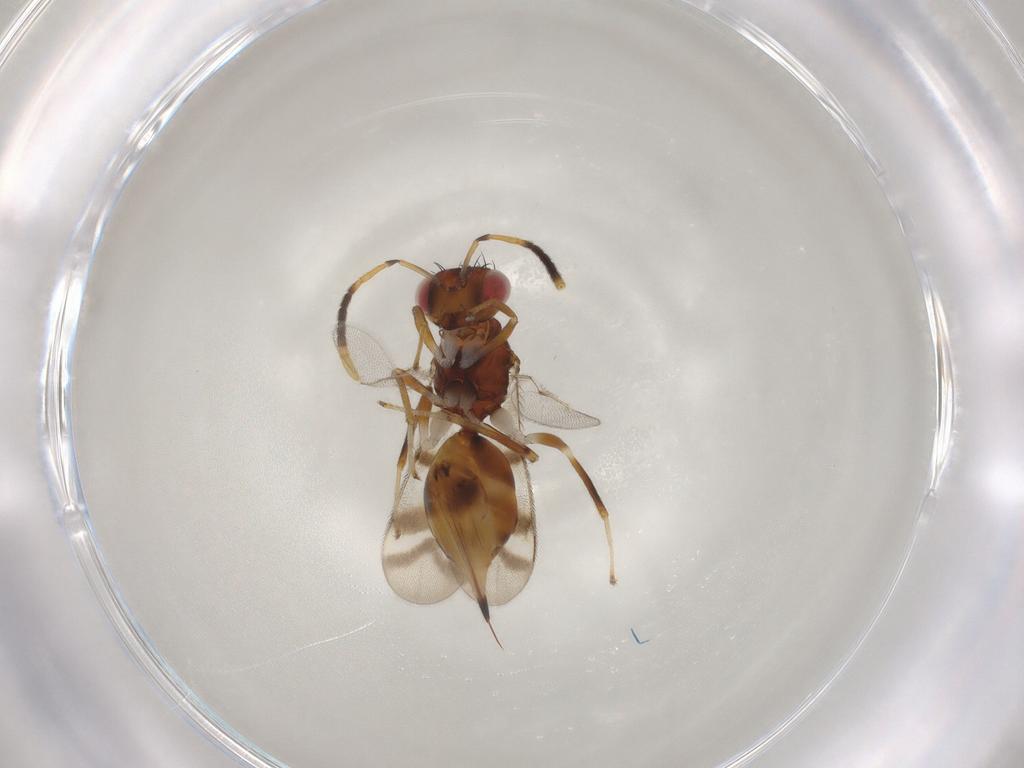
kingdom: Animalia
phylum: Arthropoda
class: Insecta
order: Hymenoptera
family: Diparidae
